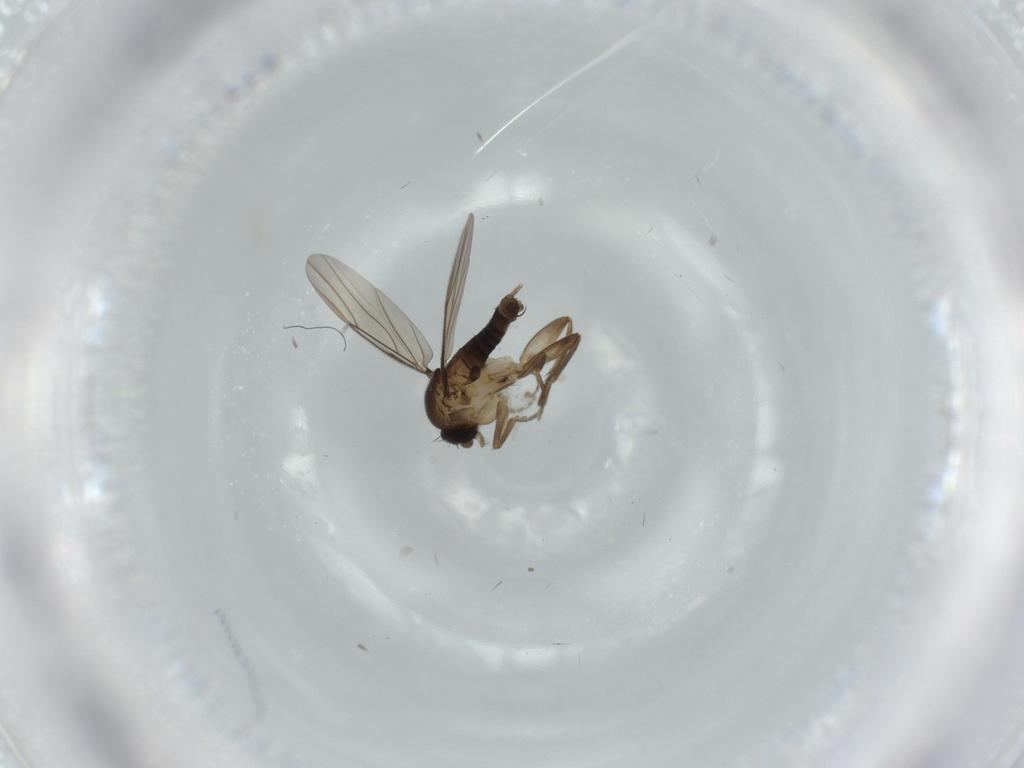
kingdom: Animalia
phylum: Arthropoda
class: Insecta
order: Diptera
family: Phoridae
